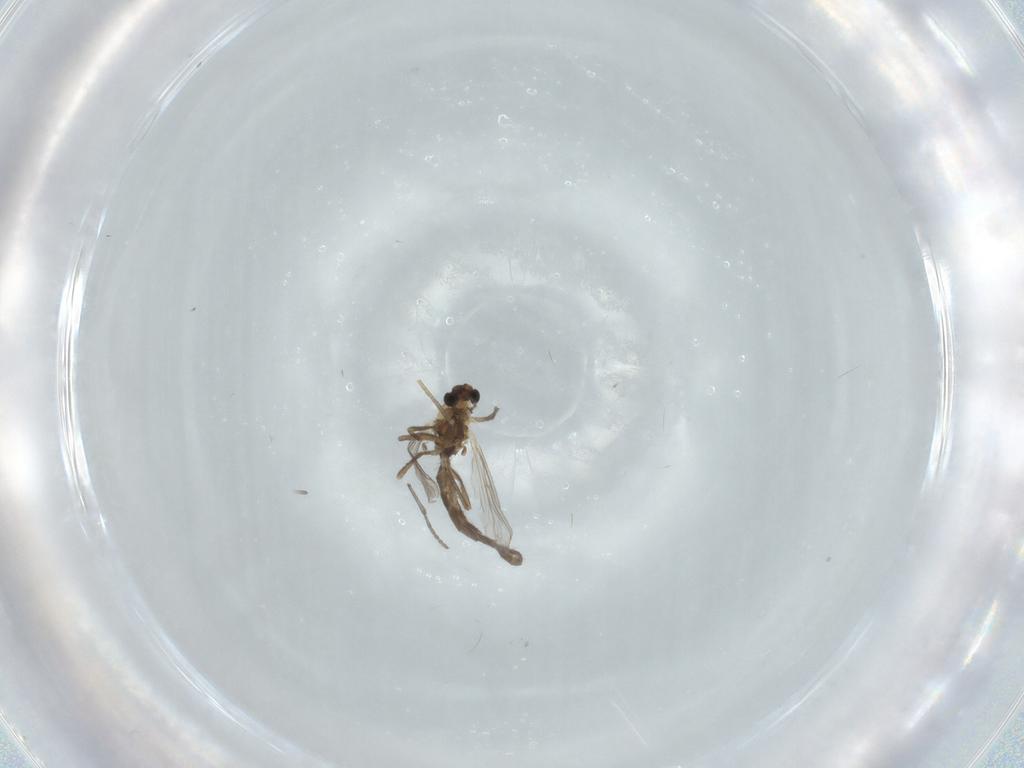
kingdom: Animalia
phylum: Arthropoda
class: Insecta
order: Diptera
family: Chironomidae
